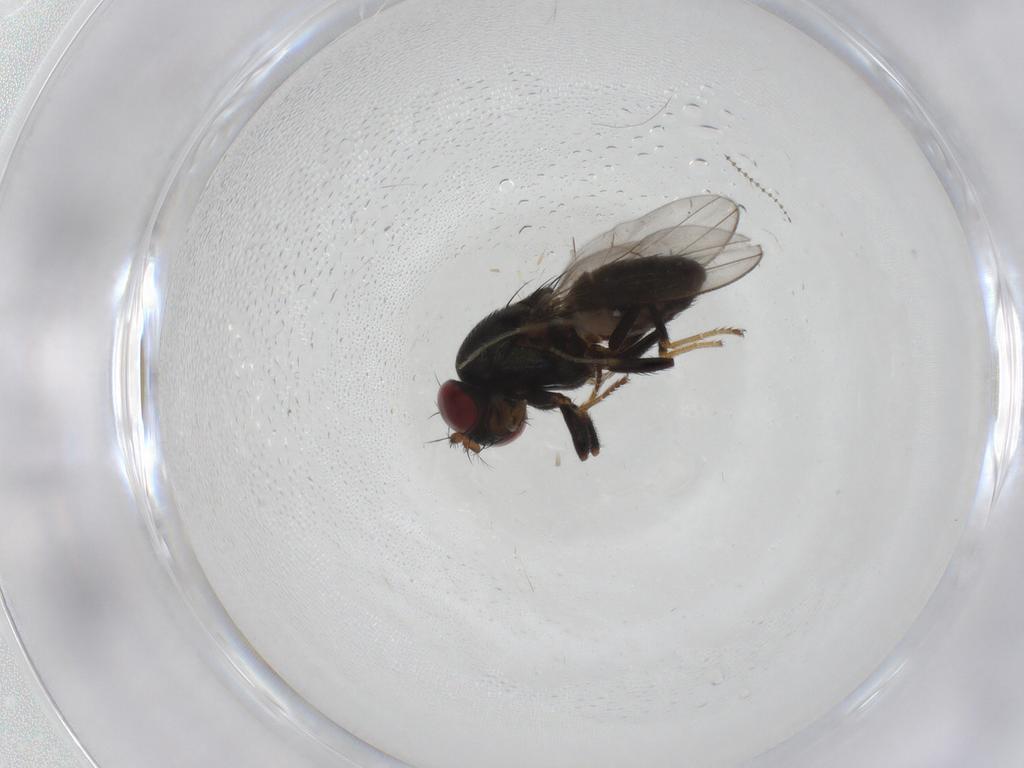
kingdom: Animalia
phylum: Arthropoda
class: Insecta
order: Diptera
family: Ephydridae
